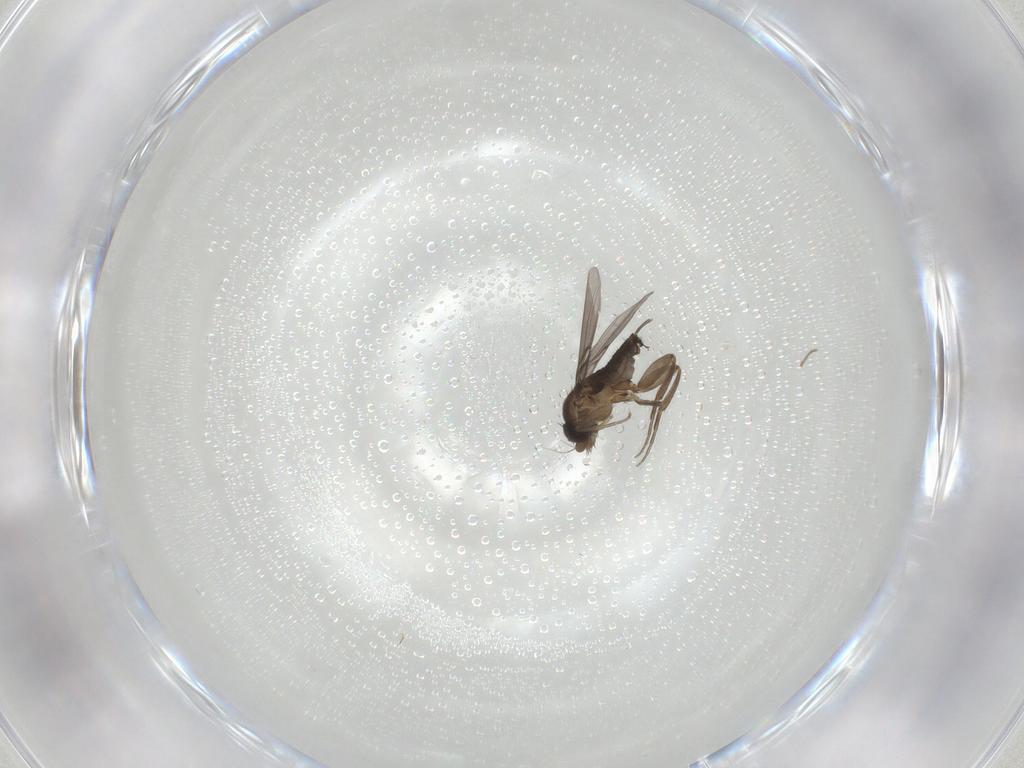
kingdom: Animalia
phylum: Arthropoda
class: Insecta
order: Diptera
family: Phoridae
